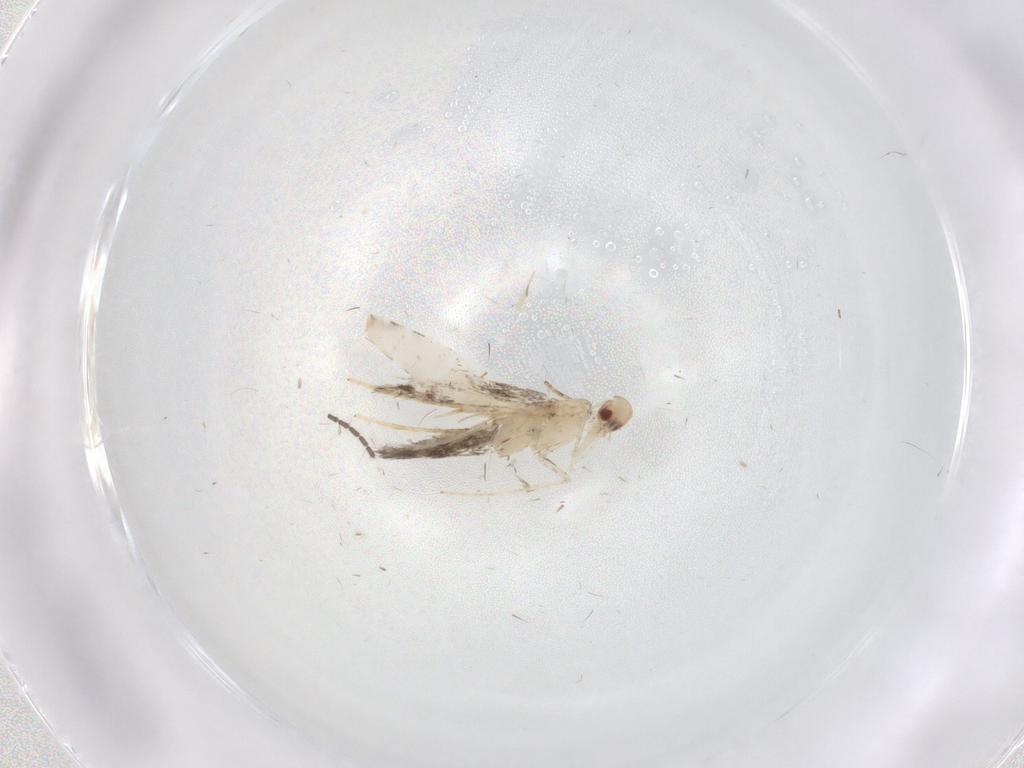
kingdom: Animalia
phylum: Arthropoda
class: Insecta
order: Lepidoptera
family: Gracillariidae
